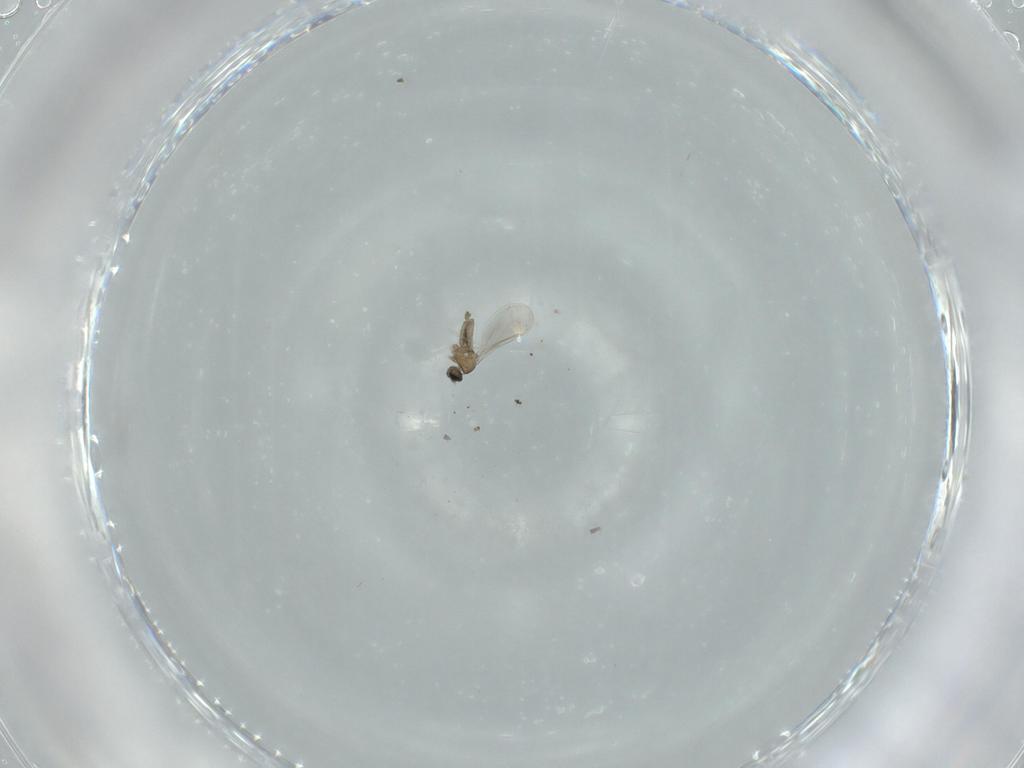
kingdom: Animalia
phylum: Arthropoda
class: Insecta
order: Diptera
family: Cecidomyiidae
